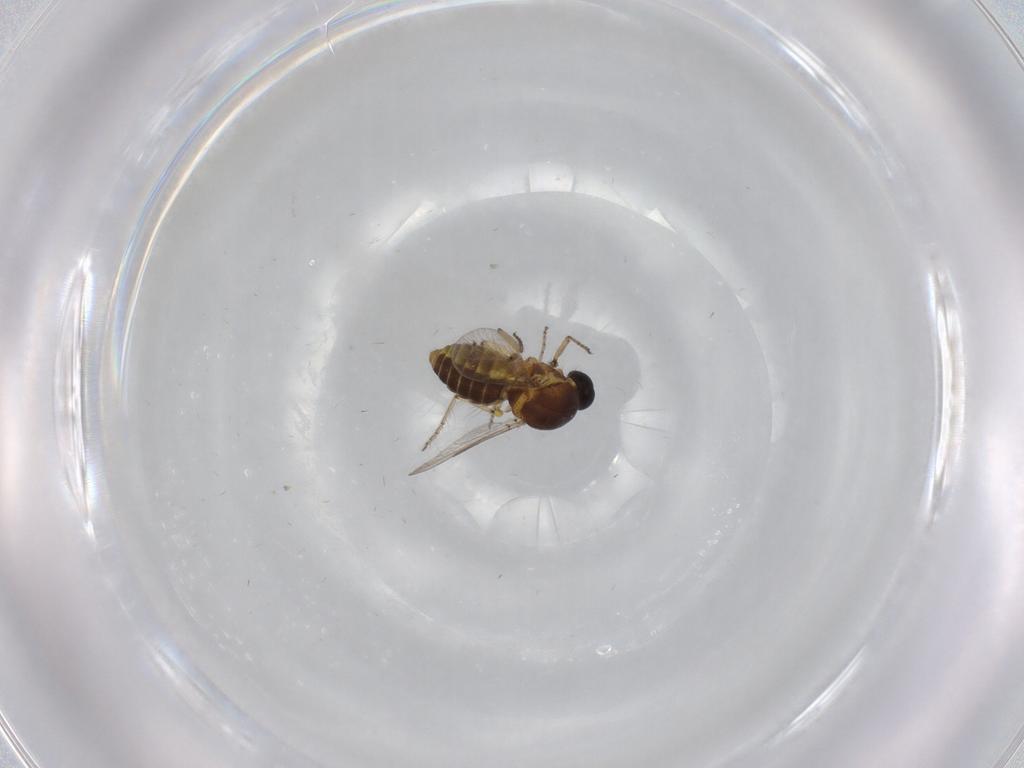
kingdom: Animalia
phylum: Arthropoda
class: Insecta
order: Diptera
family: Ceratopogonidae
